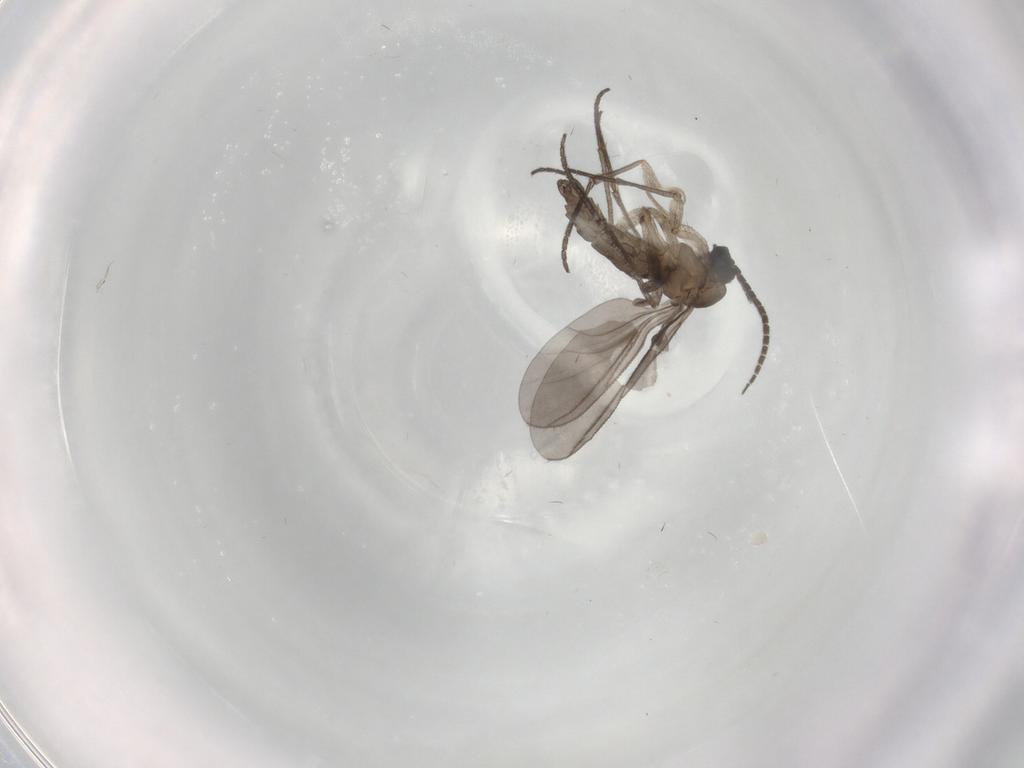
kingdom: Animalia
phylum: Arthropoda
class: Insecta
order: Diptera
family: Sciaridae
